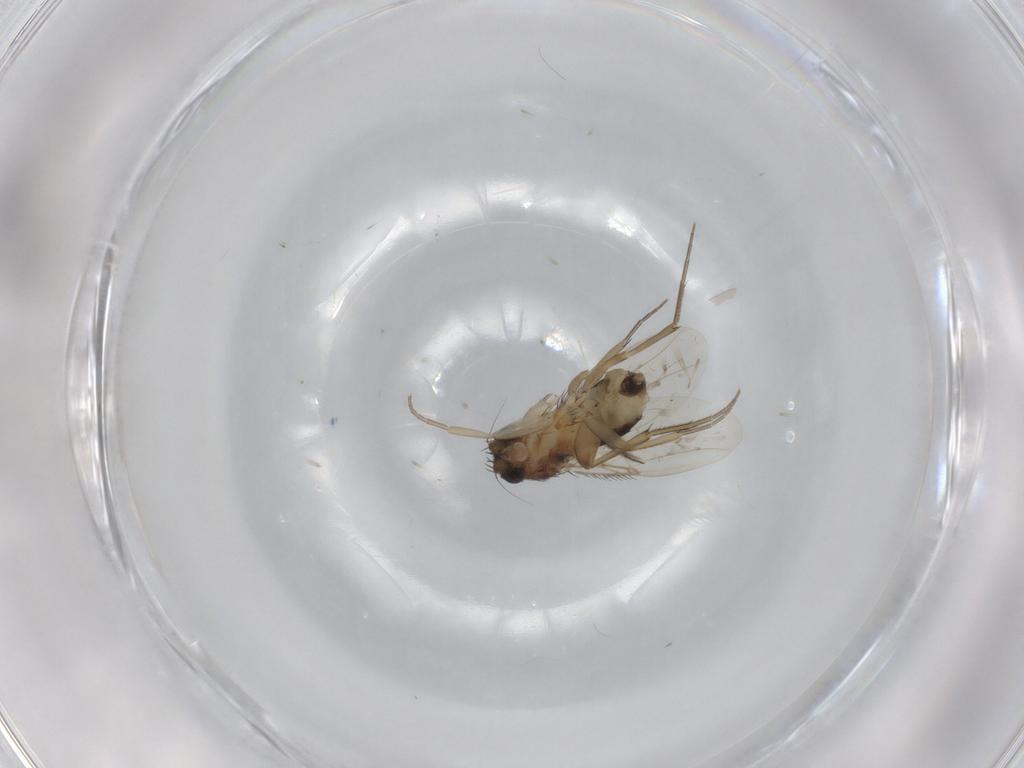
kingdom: Animalia
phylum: Arthropoda
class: Insecta
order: Diptera
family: Phoridae
